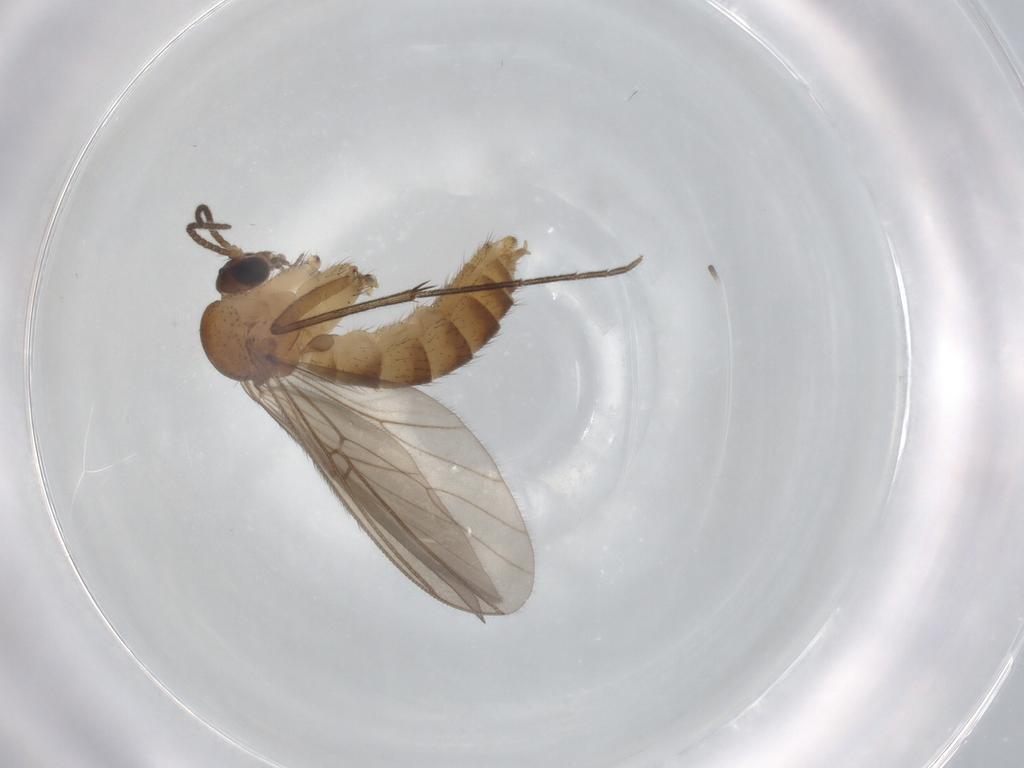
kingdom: Animalia
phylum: Arthropoda
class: Insecta
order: Diptera
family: Mycetophilidae
